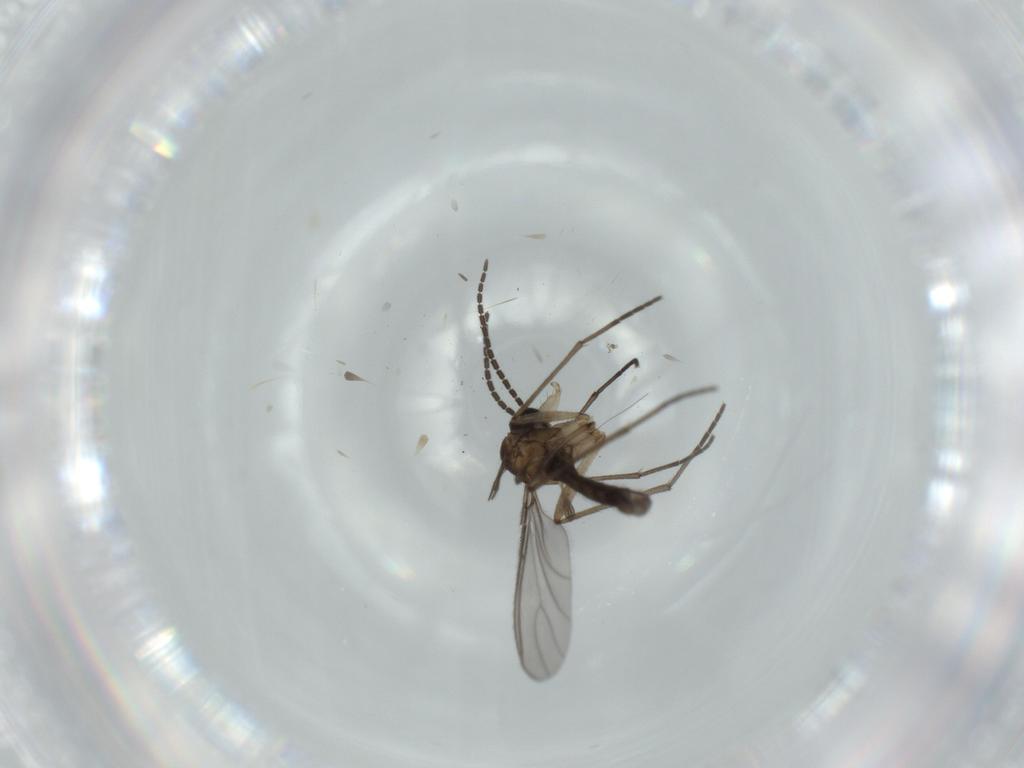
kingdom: Animalia
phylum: Arthropoda
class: Insecta
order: Diptera
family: Sciaridae
